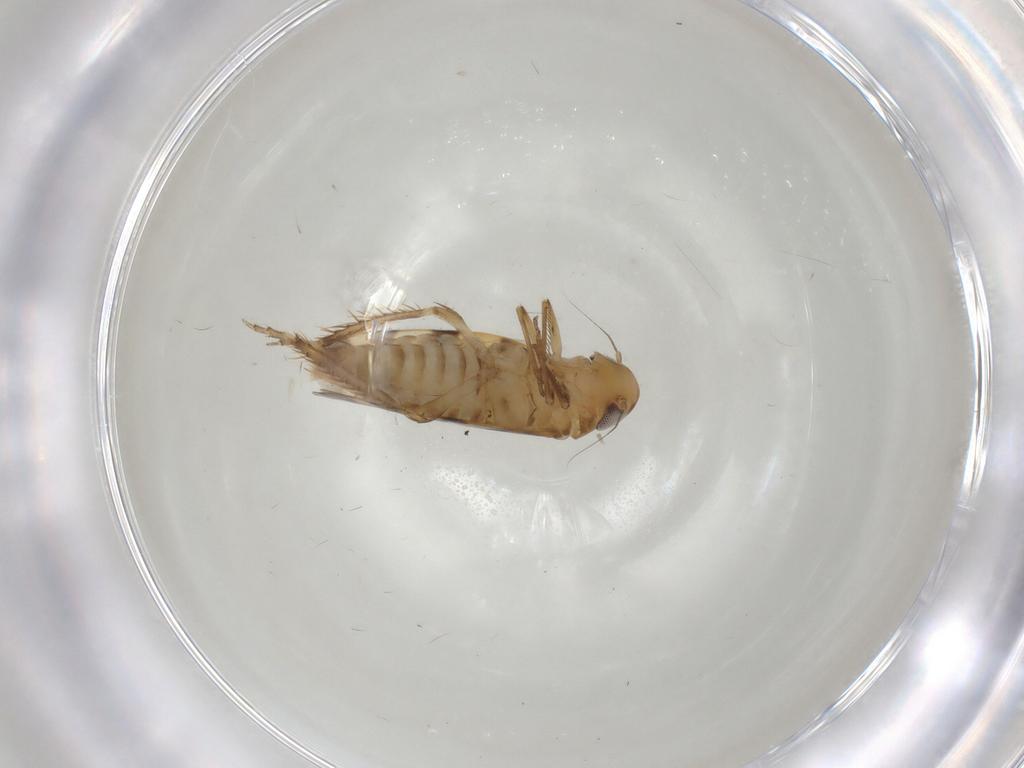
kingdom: Animalia
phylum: Arthropoda
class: Insecta
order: Hemiptera
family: Cicadellidae
